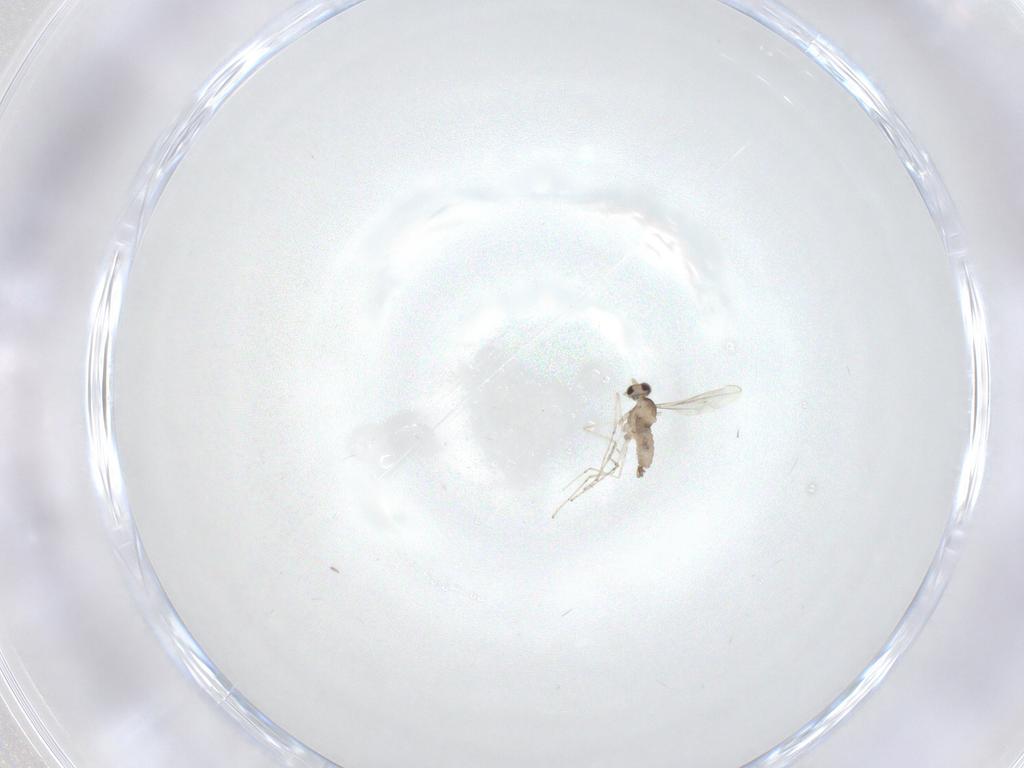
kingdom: Animalia
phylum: Arthropoda
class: Insecta
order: Diptera
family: Cecidomyiidae
